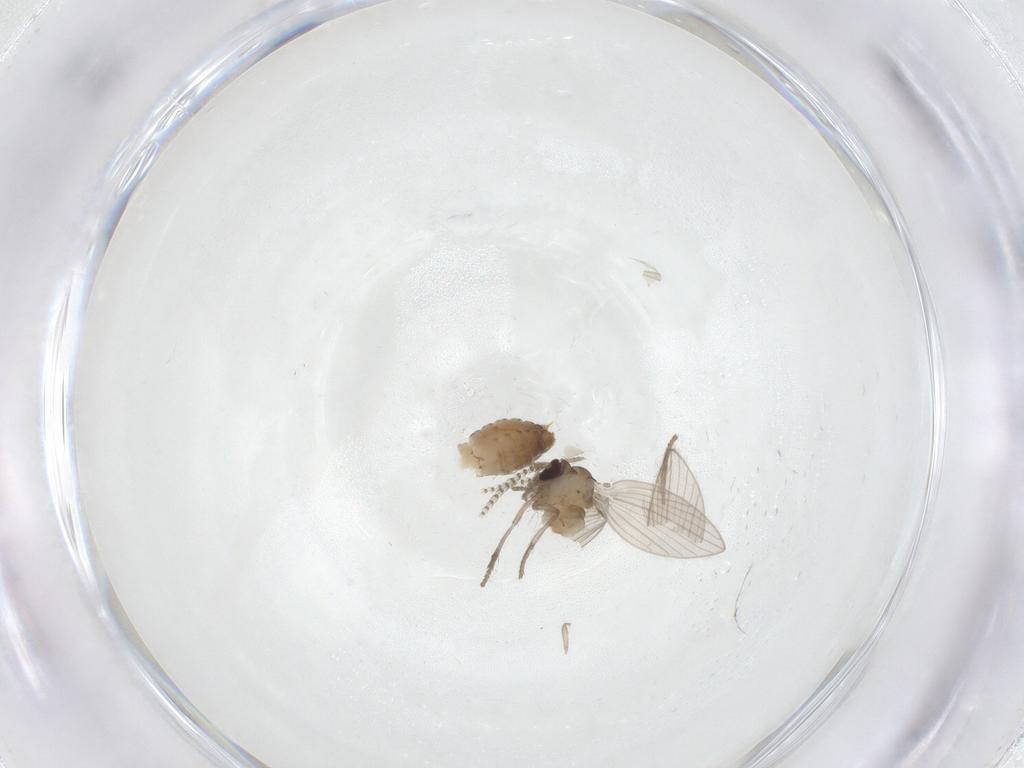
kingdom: Animalia
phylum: Arthropoda
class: Insecta
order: Diptera
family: Psychodidae
